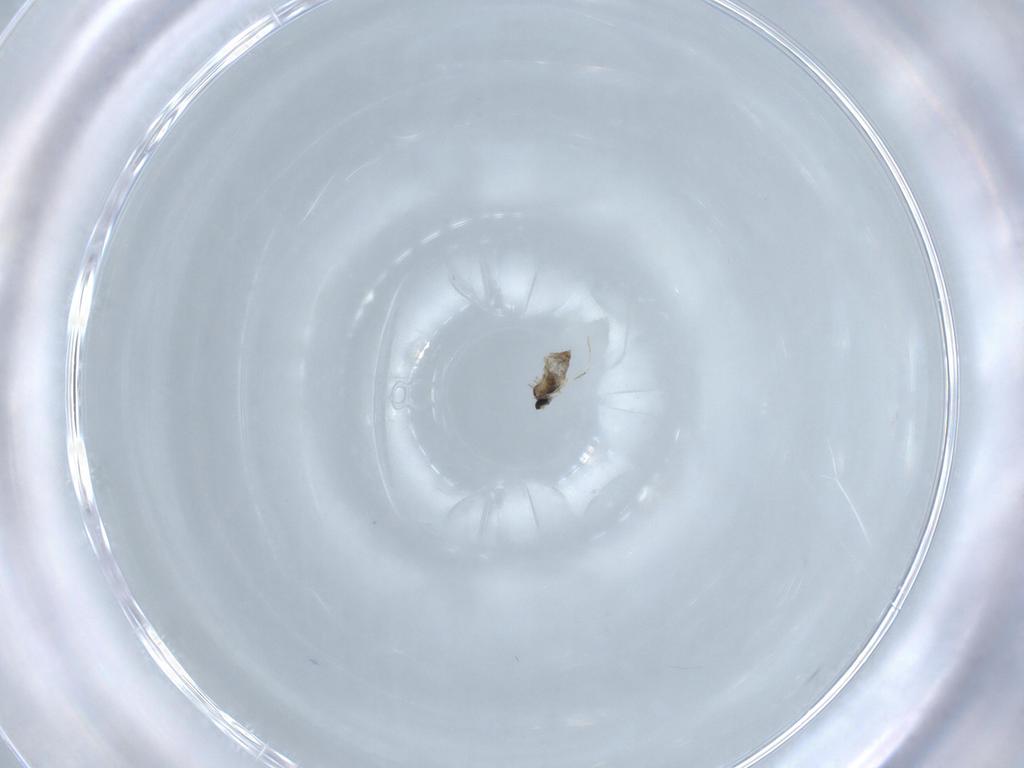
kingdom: Animalia
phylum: Arthropoda
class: Insecta
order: Diptera
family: Cecidomyiidae
